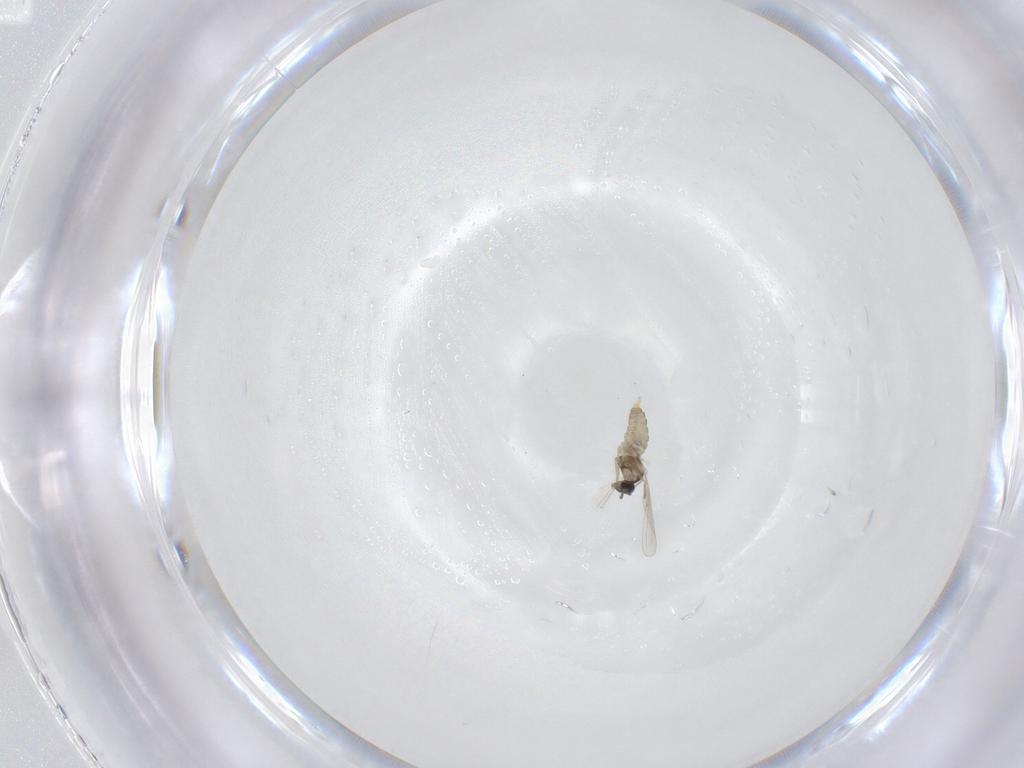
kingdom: Animalia
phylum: Arthropoda
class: Insecta
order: Diptera
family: Cecidomyiidae
